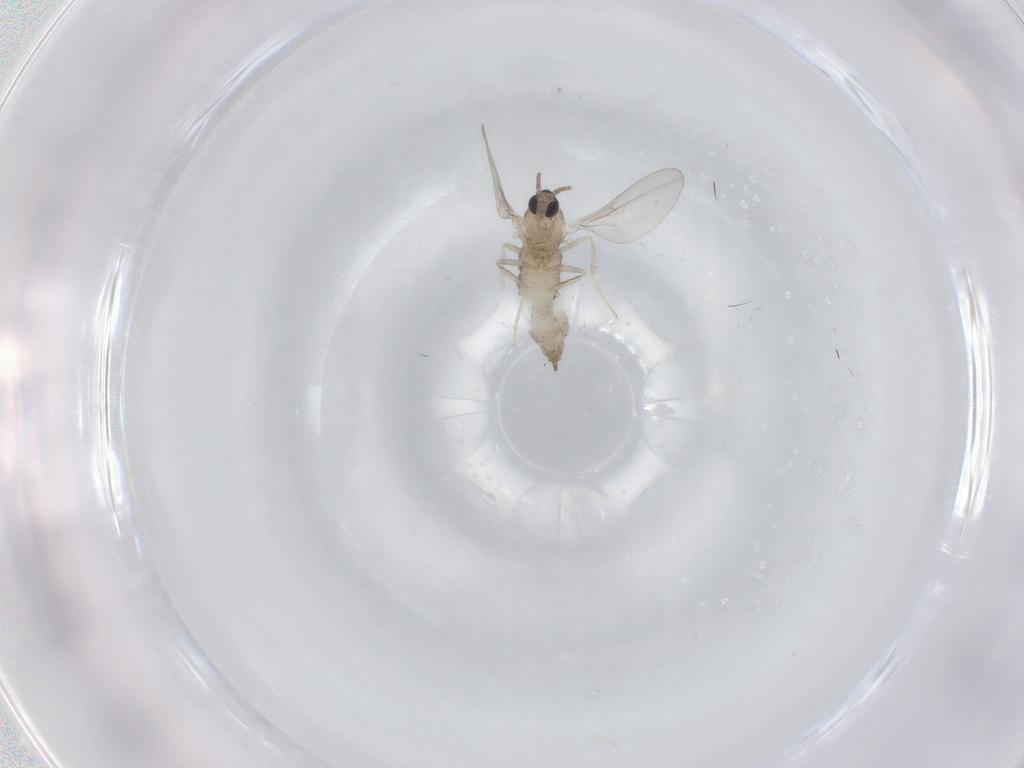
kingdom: Animalia
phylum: Arthropoda
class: Insecta
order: Diptera
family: Cecidomyiidae
